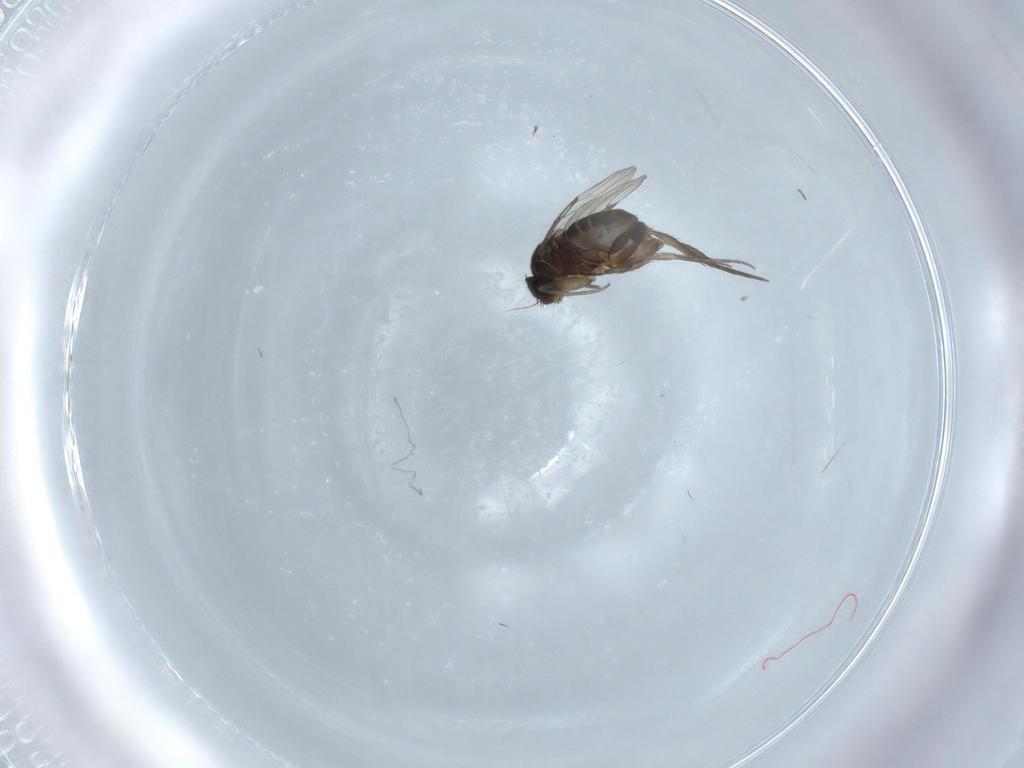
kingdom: Animalia
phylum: Arthropoda
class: Insecta
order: Diptera
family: Phoridae
